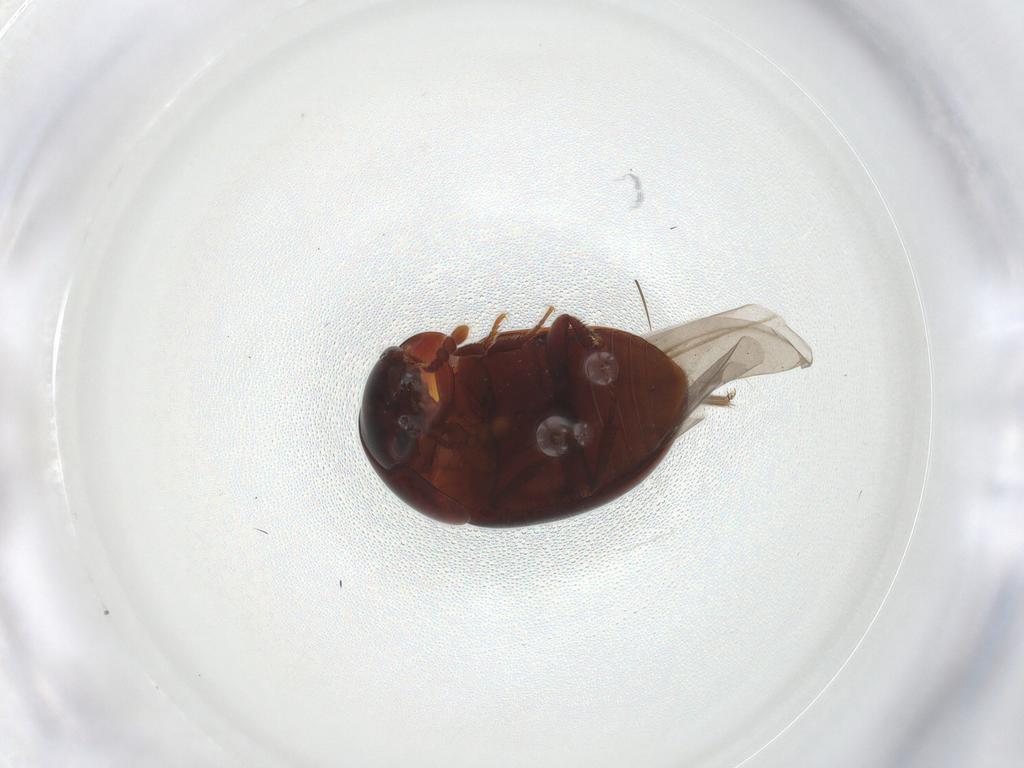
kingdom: Animalia
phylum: Arthropoda
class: Insecta
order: Coleoptera
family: Leiodidae
